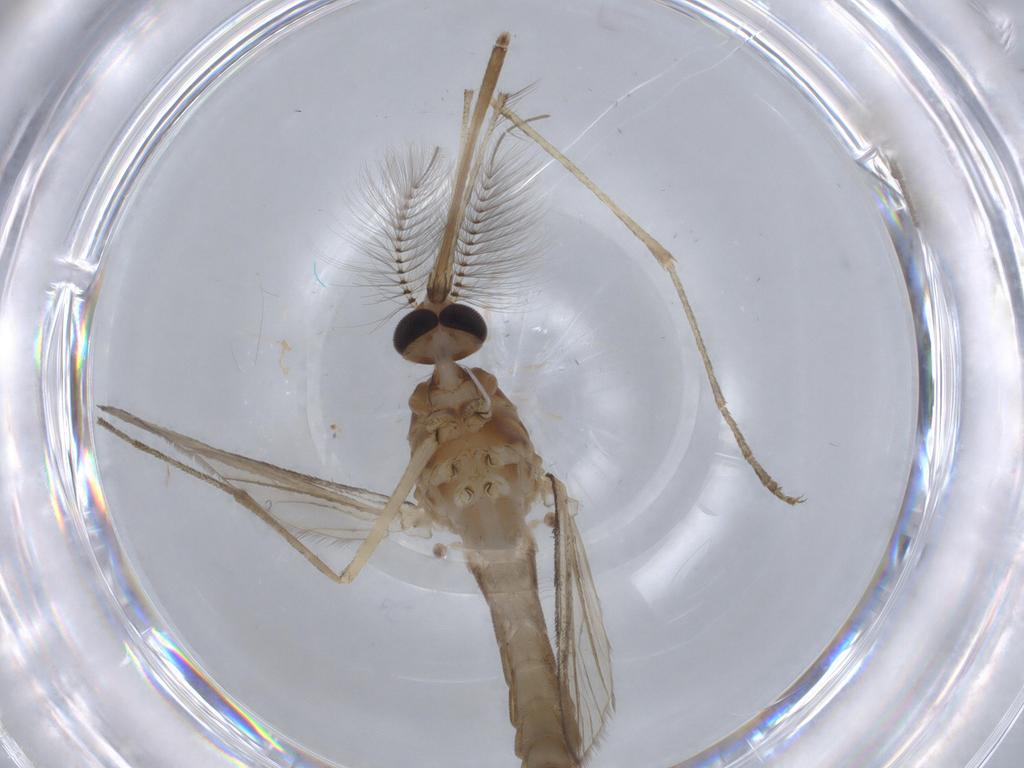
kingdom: Animalia
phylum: Arthropoda
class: Insecta
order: Diptera
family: Culicidae
